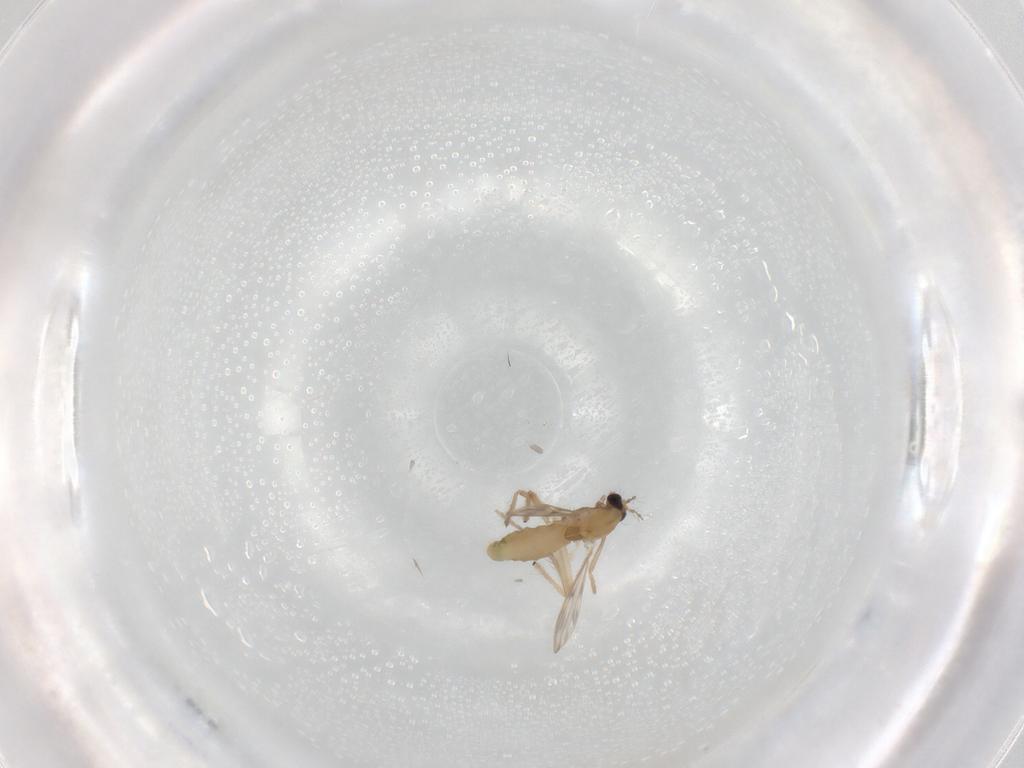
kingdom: Animalia
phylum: Arthropoda
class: Insecta
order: Diptera
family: Chironomidae
